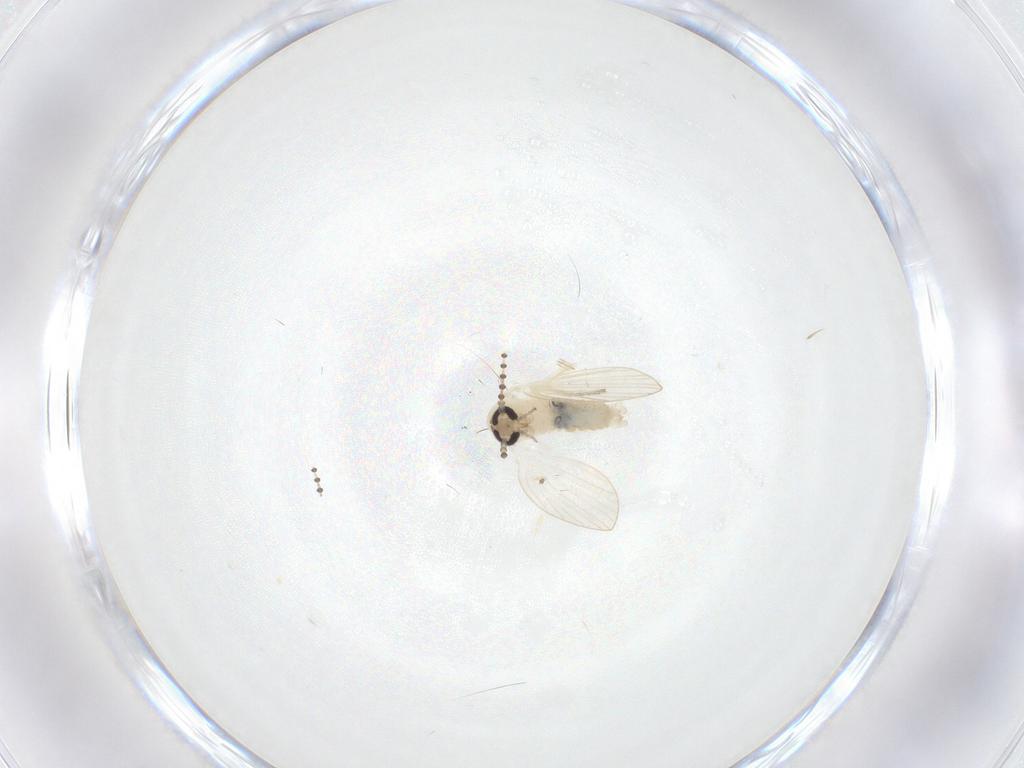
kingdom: Animalia
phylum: Arthropoda
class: Insecta
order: Diptera
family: Psychodidae
